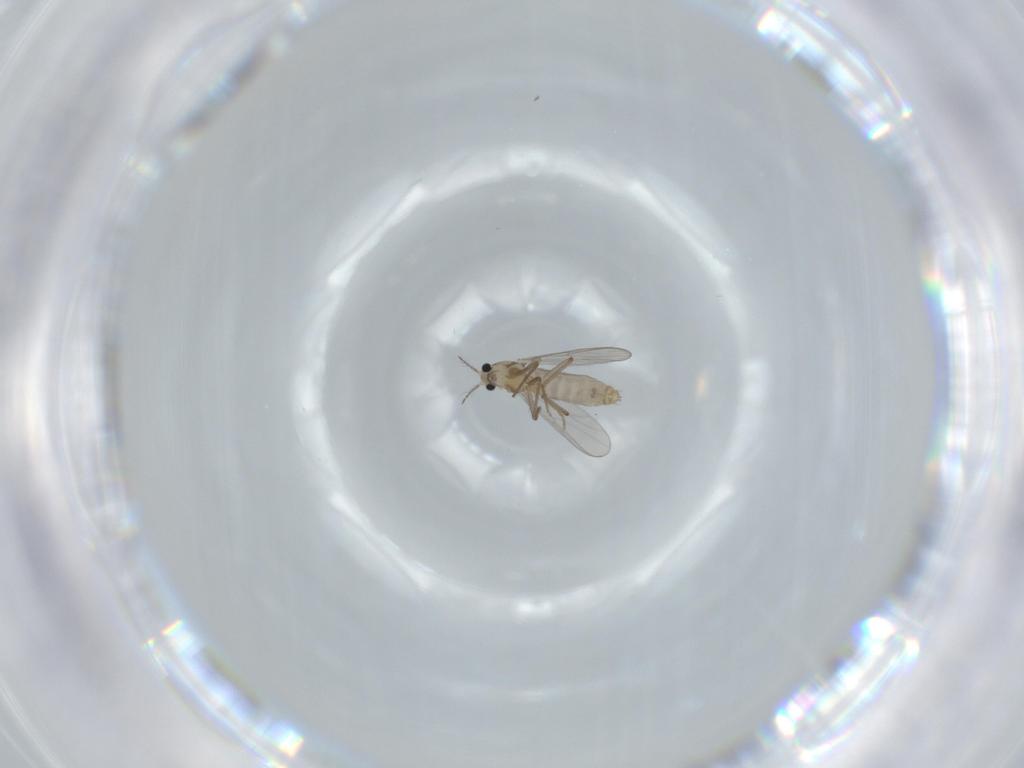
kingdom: Animalia
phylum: Arthropoda
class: Insecta
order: Diptera
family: Chironomidae
